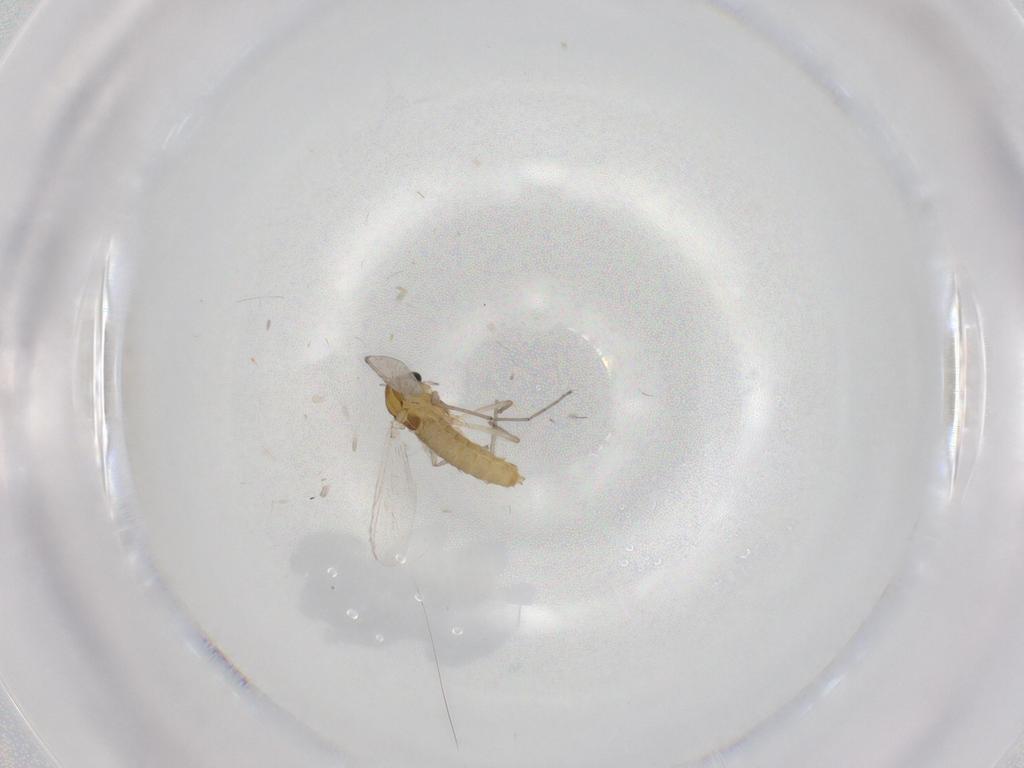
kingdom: Animalia
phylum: Arthropoda
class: Insecta
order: Diptera
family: Chironomidae
